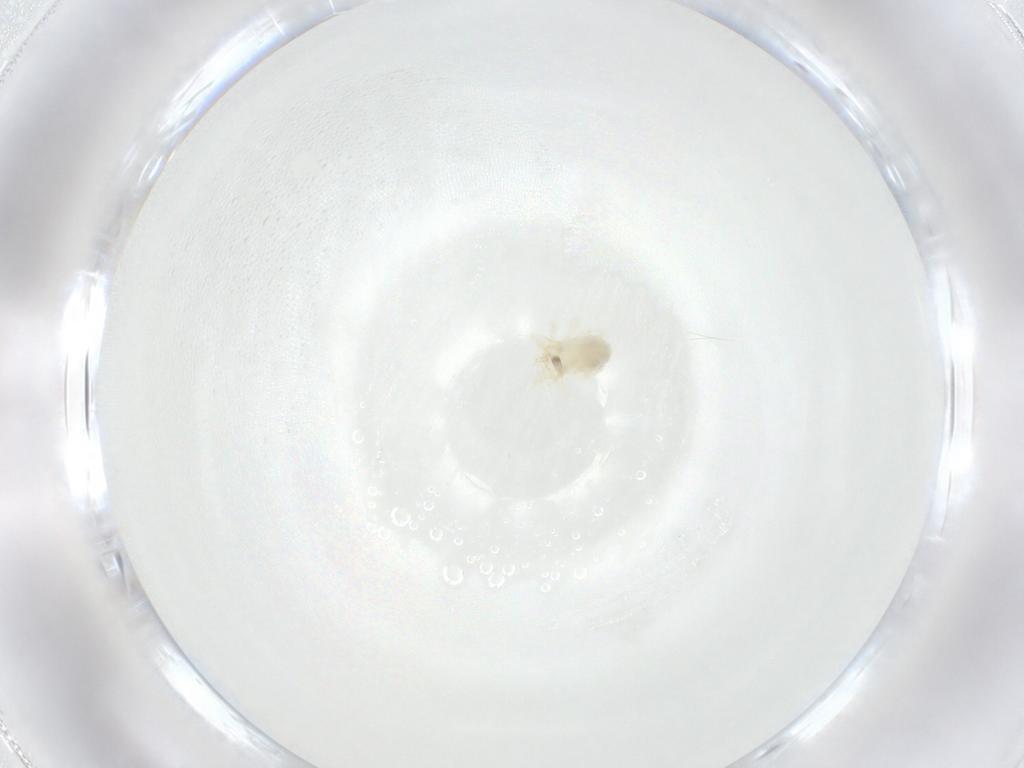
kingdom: Animalia
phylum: Arthropoda
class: Arachnida
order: Trombidiformes
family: Anystidae
